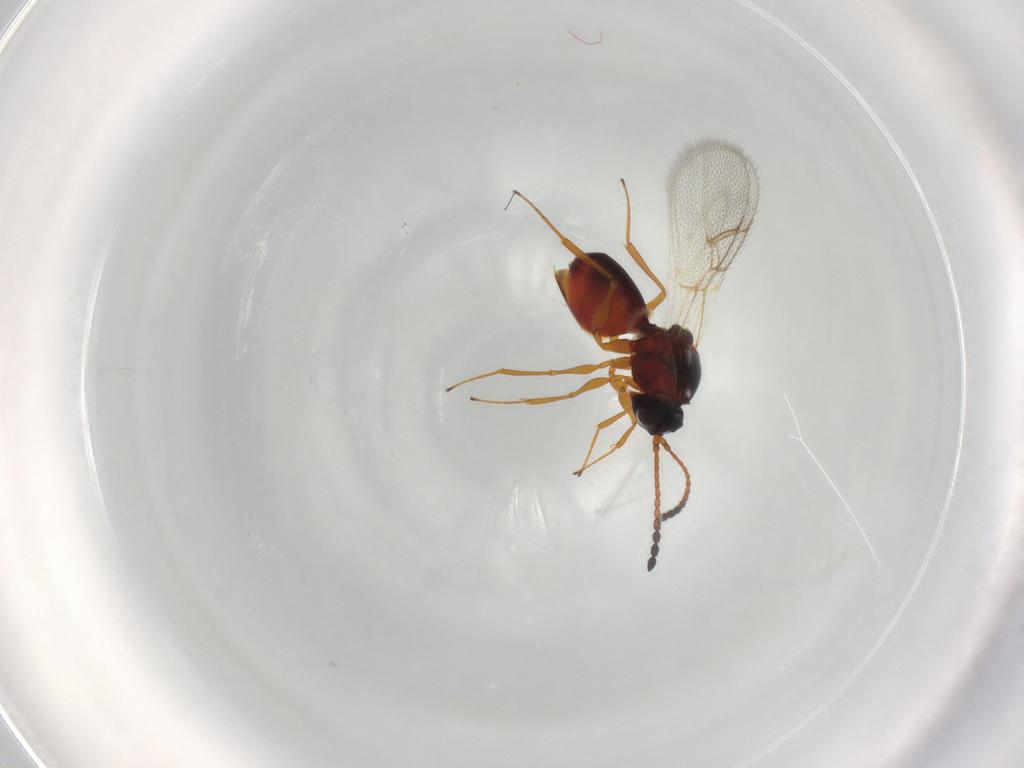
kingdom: Animalia
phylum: Arthropoda
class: Insecta
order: Hymenoptera
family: Figitidae
